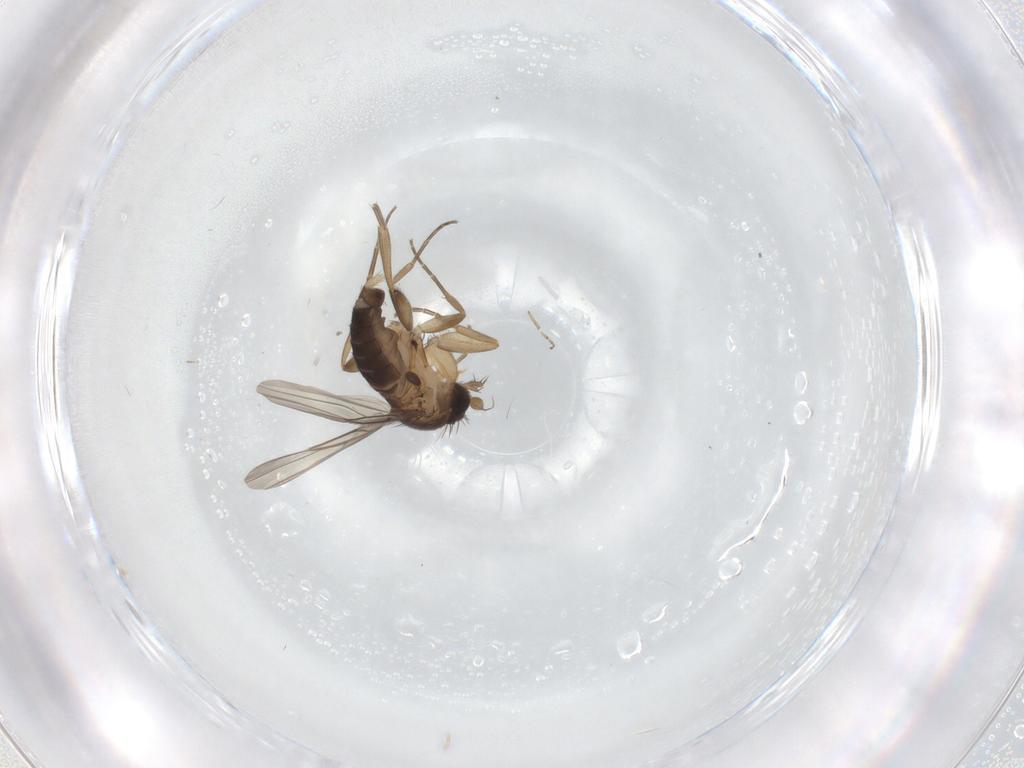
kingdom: Animalia
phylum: Arthropoda
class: Insecta
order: Diptera
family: Phoridae
